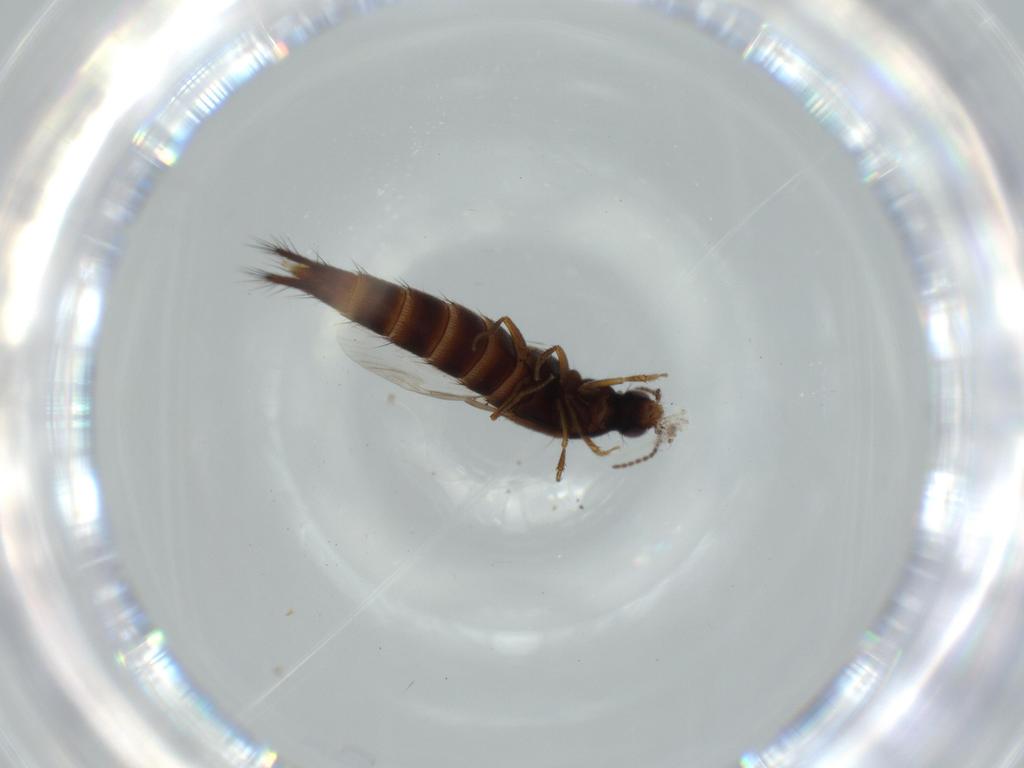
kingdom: Animalia
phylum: Arthropoda
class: Insecta
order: Coleoptera
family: Staphylinidae
